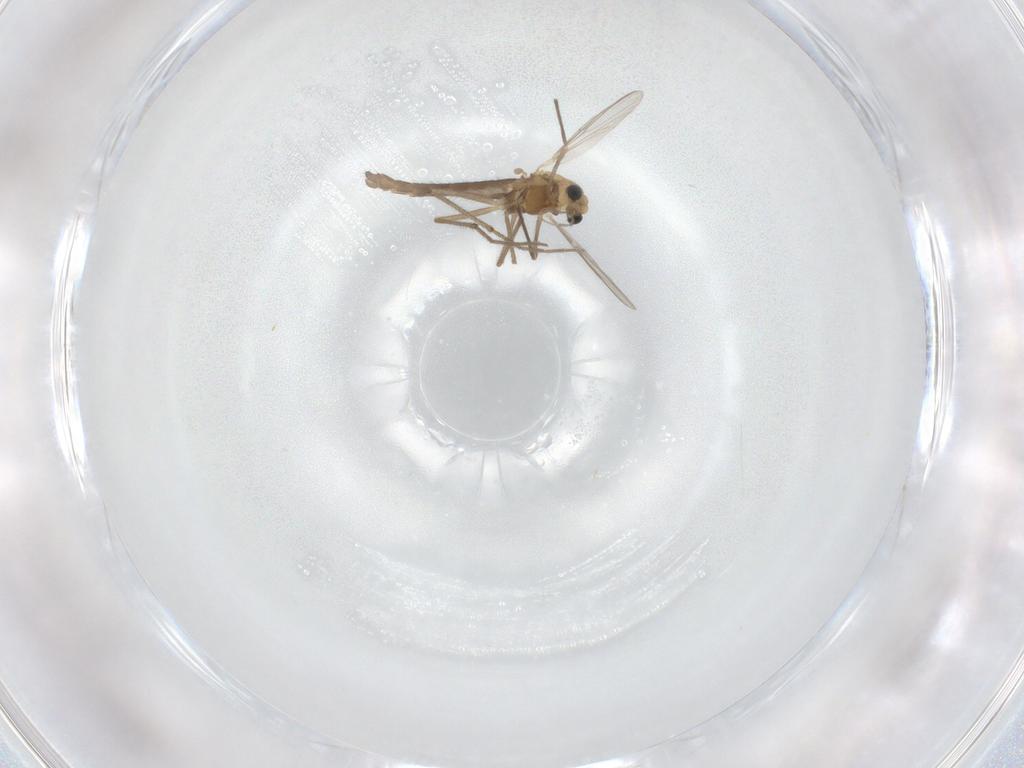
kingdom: Animalia
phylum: Arthropoda
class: Insecta
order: Diptera
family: Chironomidae
